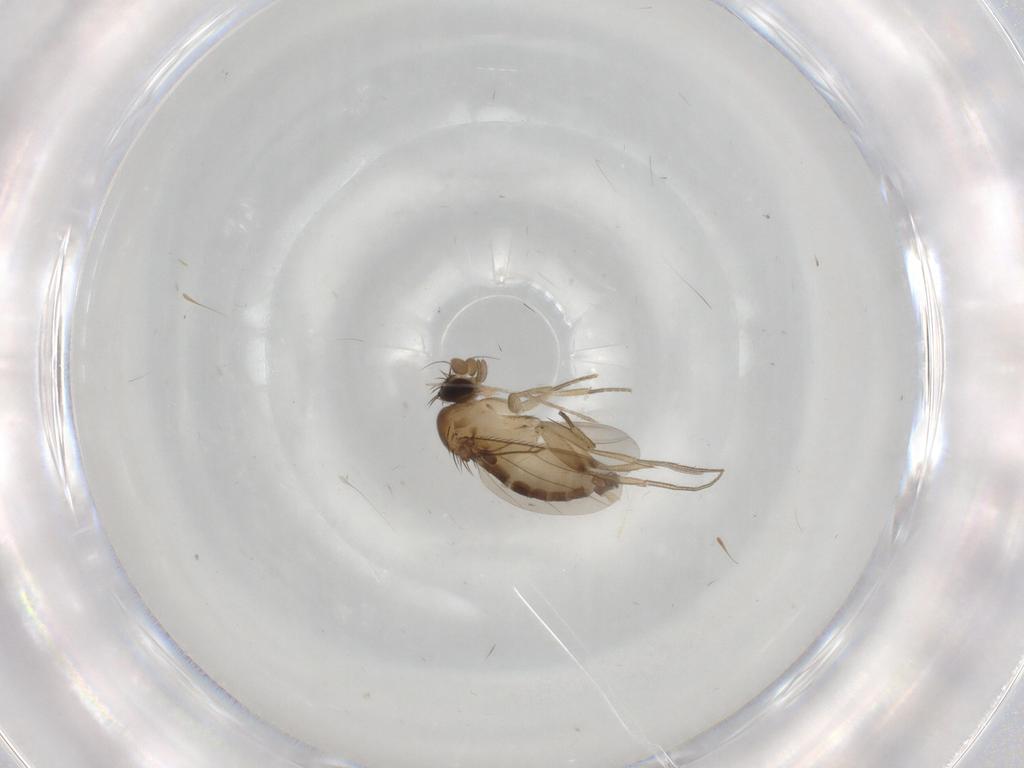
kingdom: Animalia
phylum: Arthropoda
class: Insecta
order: Diptera
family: Phoridae
